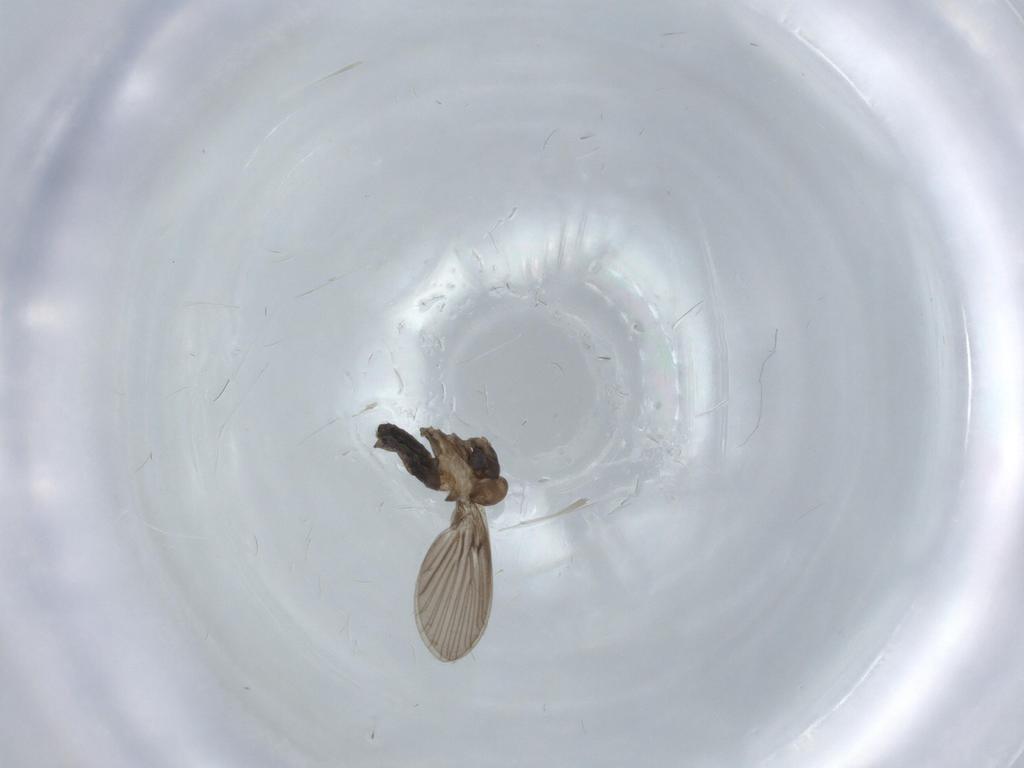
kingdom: Animalia
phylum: Arthropoda
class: Insecta
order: Diptera
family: Psychodidae
